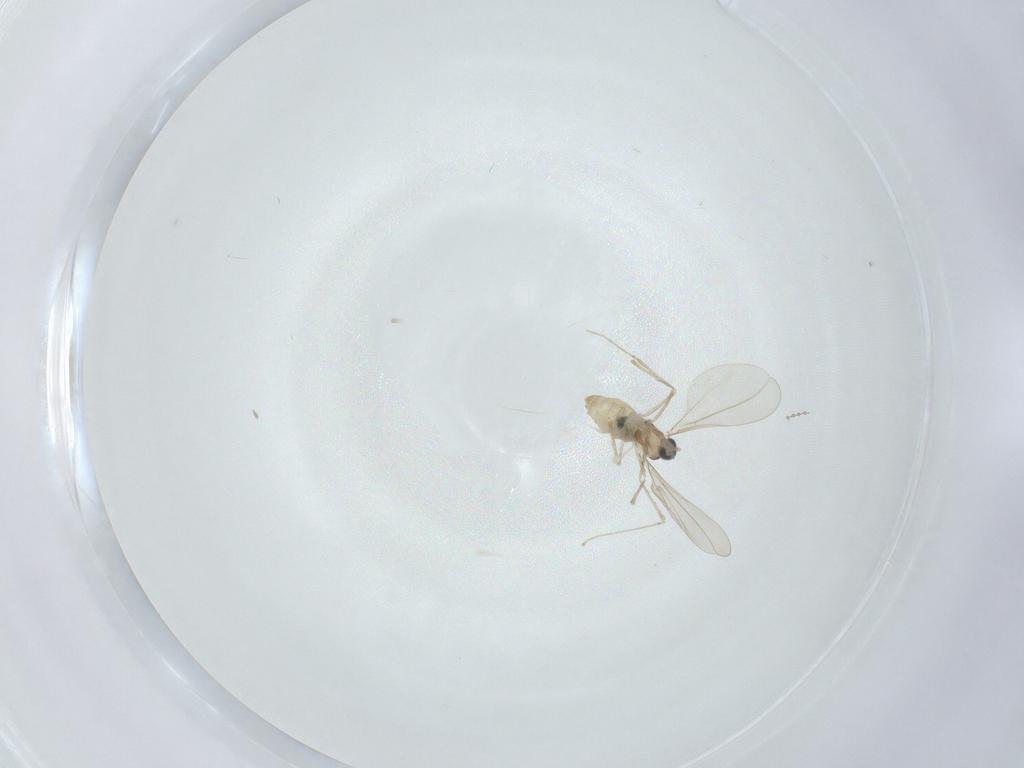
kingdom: Animalia
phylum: Arthropoda
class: Insecta
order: Diptera
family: Cecidomyiidae
